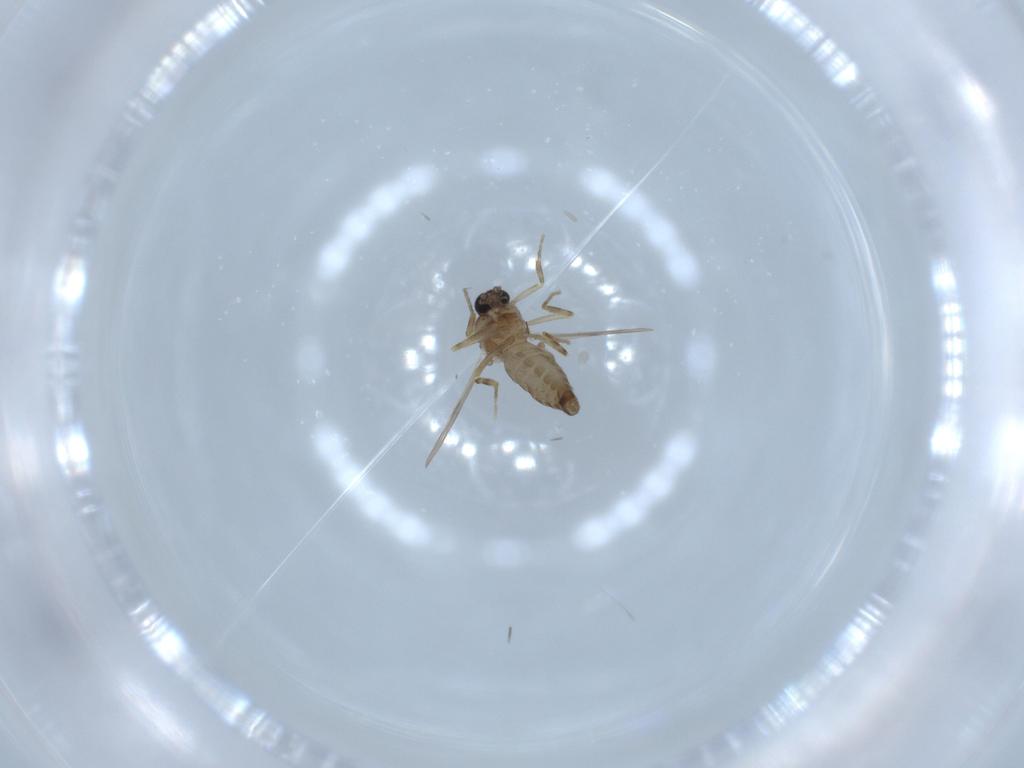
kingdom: Animalia
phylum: Arthropoda
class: Insecta
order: Diptera
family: Ceratopogonidae
